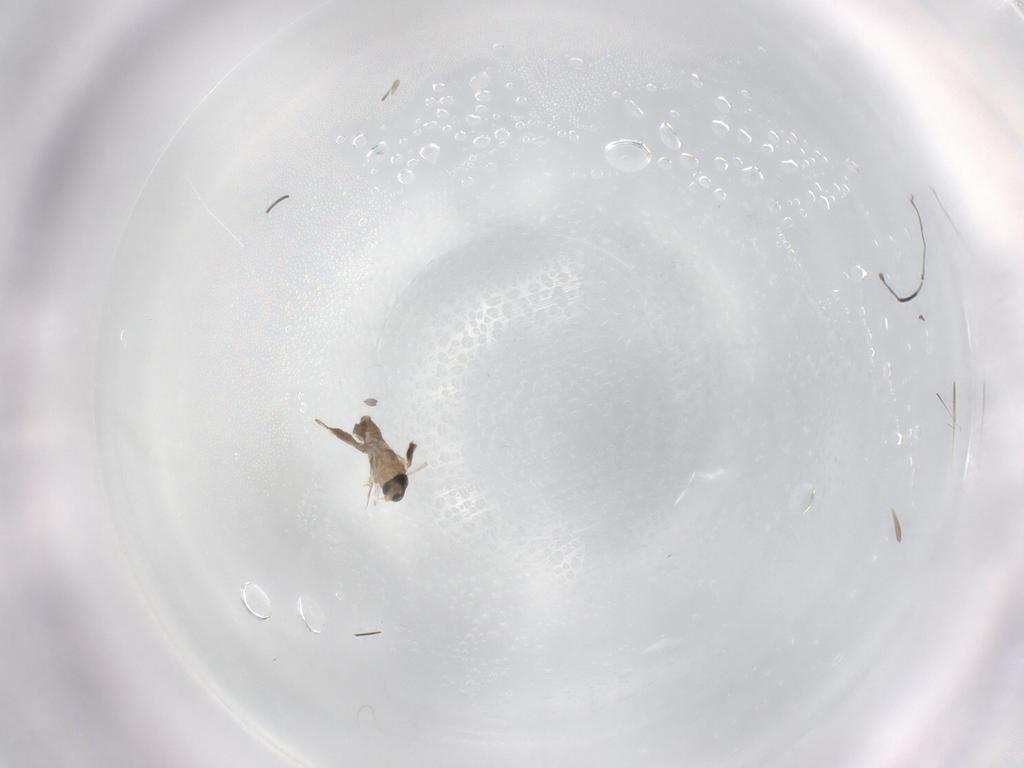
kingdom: Animalia
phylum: Arthropoda
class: Insecta
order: Diptera
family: Cecidomyiidae
